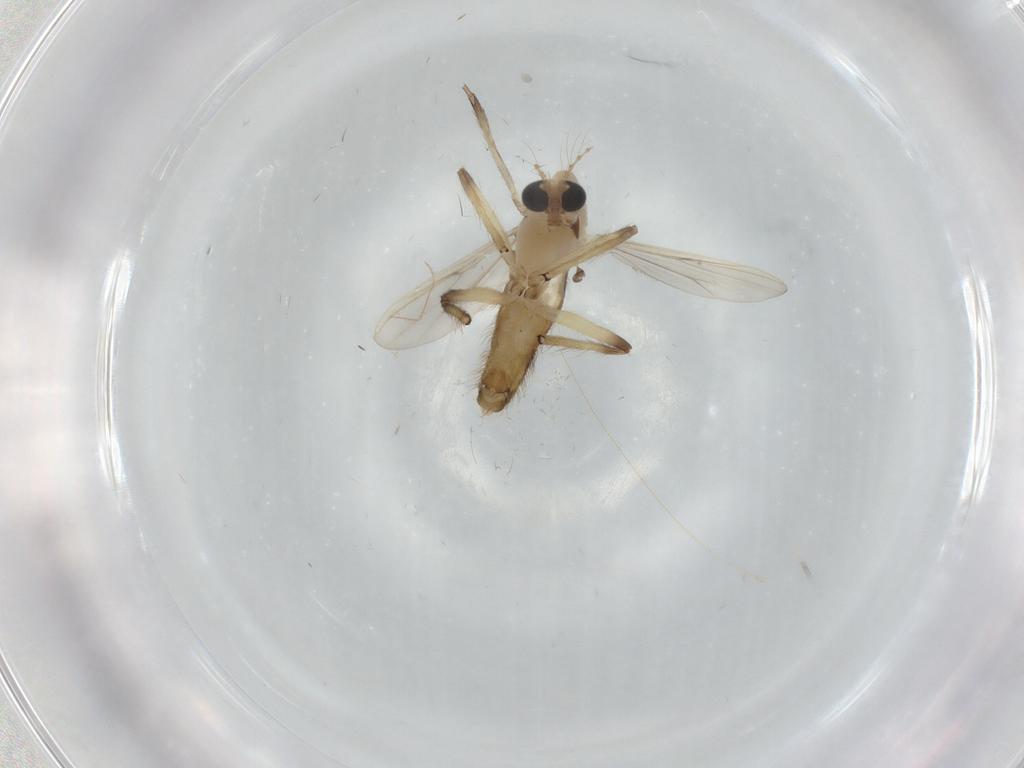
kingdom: Animalia
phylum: Arthropoda
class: Insecta
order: Diptera
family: Chironomidae
